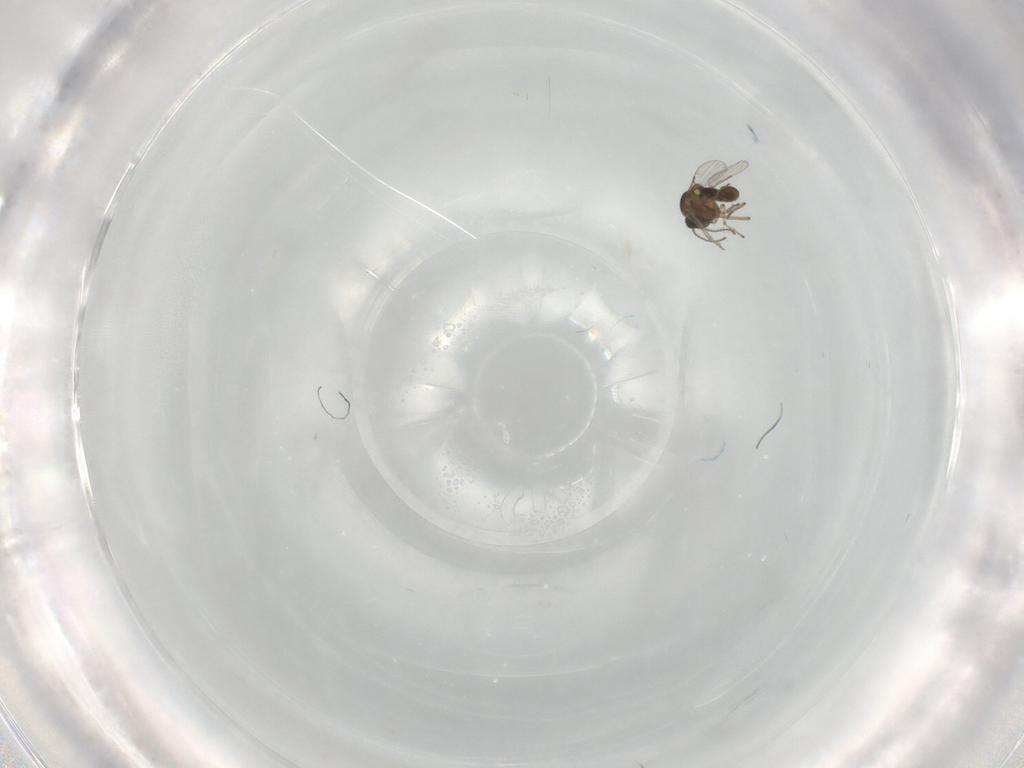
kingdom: Animalia
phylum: Arthropoda
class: Insecta
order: Diptera
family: Ceratopogonidae
